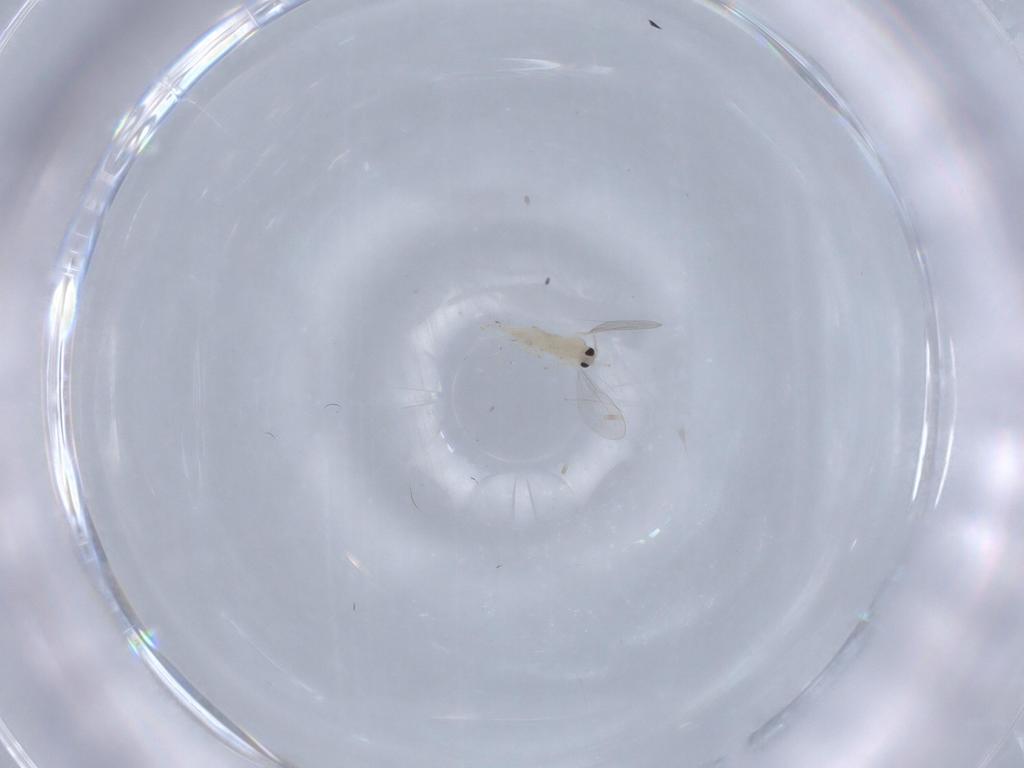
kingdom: Animalia
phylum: Arthropoda
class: Insecta
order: Diptera
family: Cecidomyiidae
